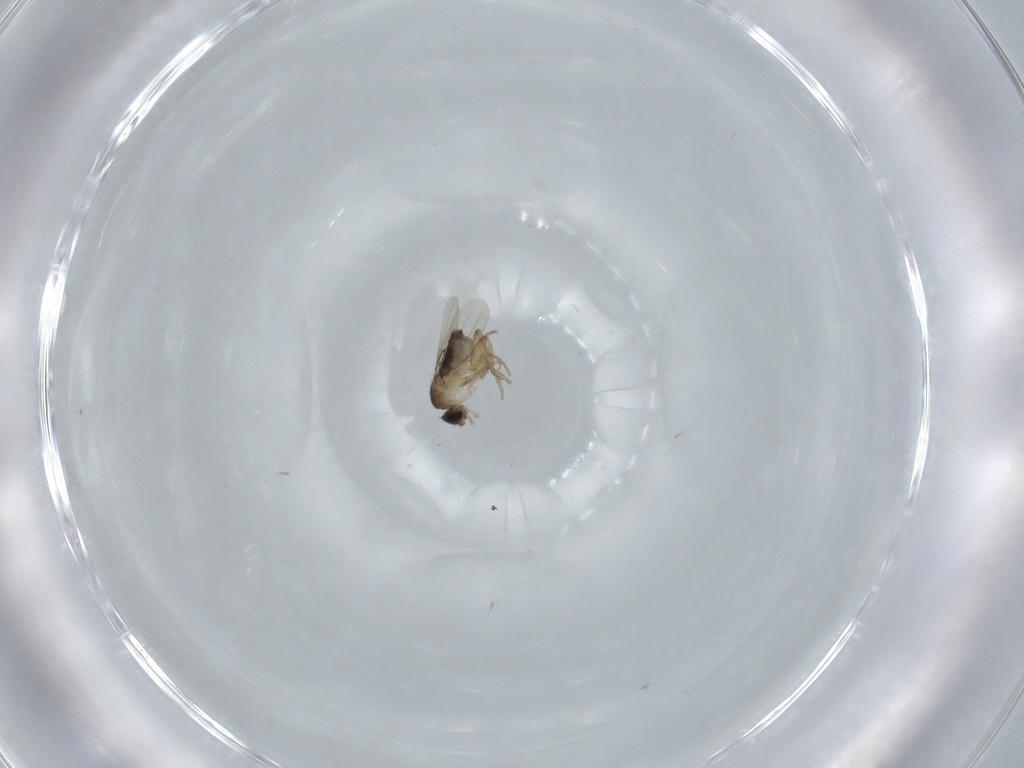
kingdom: Animalia
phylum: Arthropoda
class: Insecta
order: Diptera
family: Phoridae
